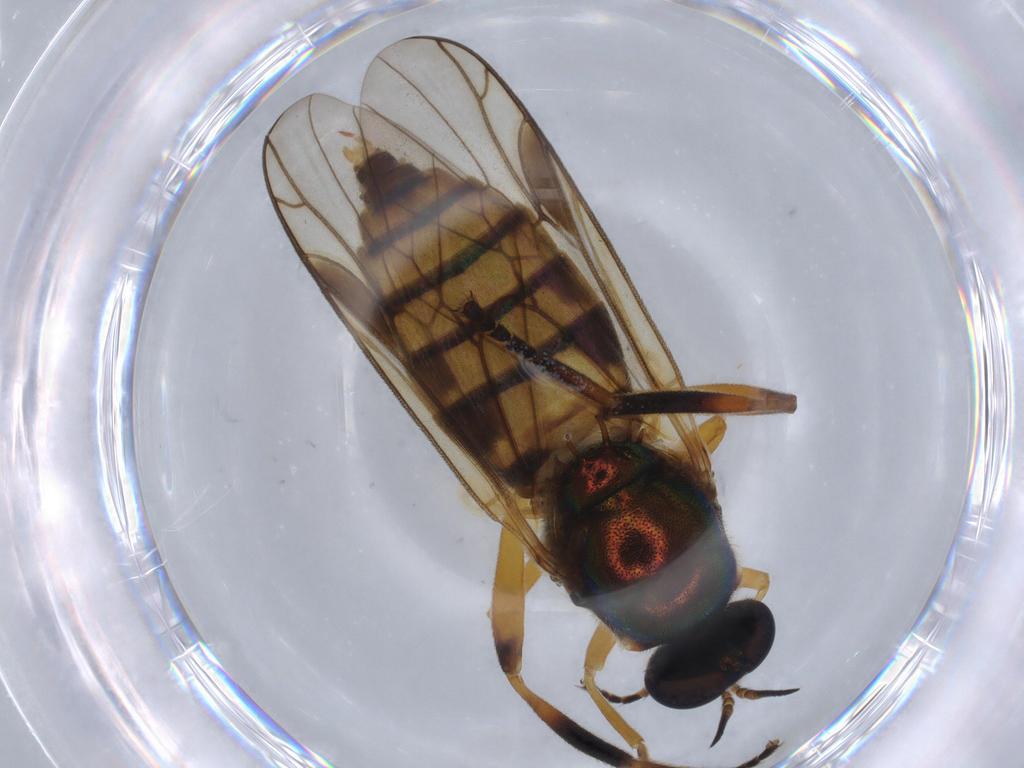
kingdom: Animalia
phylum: Arthropoda
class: Insecta
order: Diptera
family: Stratiomyidae
